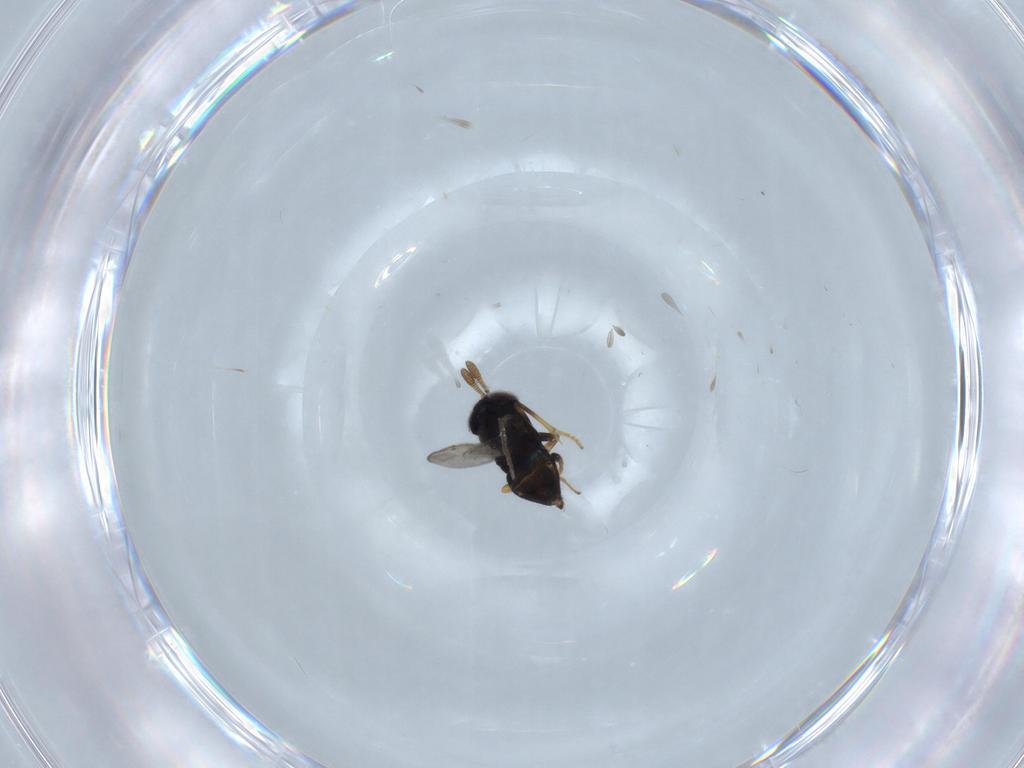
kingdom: Animalia
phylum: Arthropoda
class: Insecta
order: Hymenoptera
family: Encyrtidae
